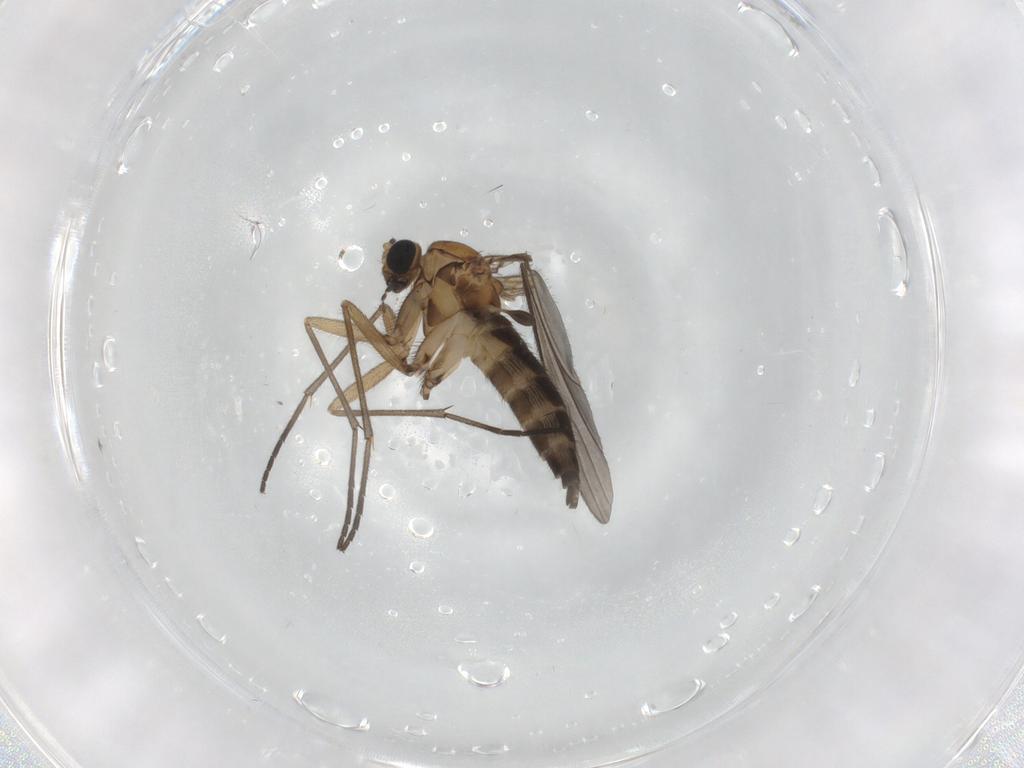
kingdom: Animalia
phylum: Arthropoda
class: Insecta
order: Diptera
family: Sciaridae
